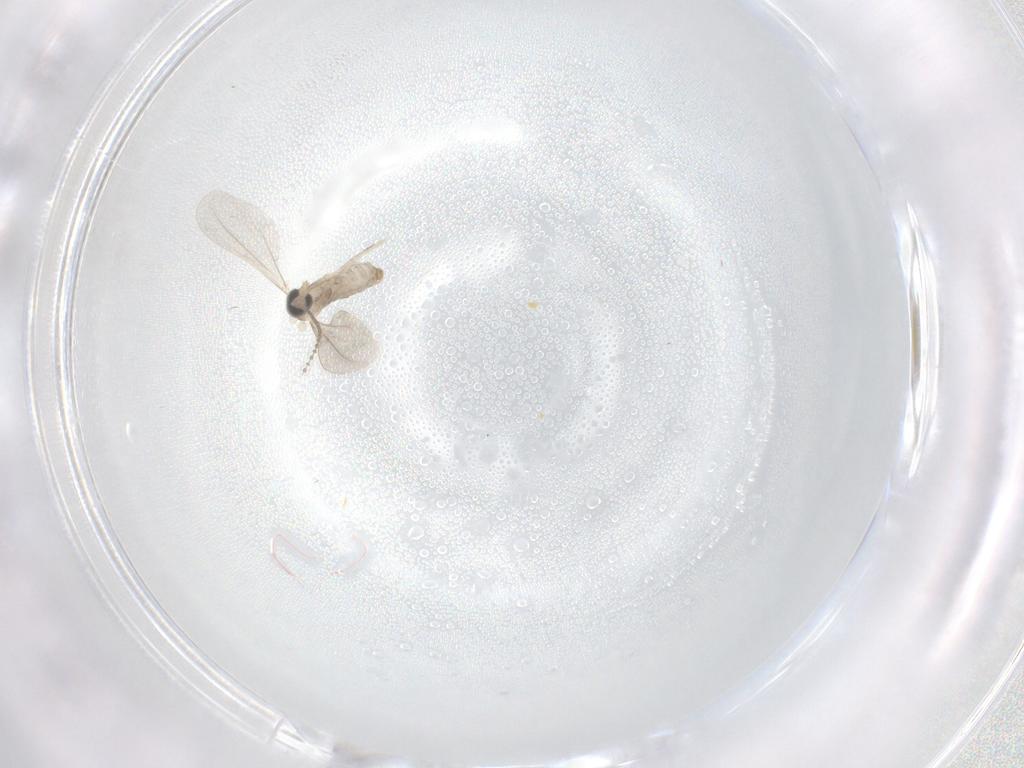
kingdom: Animalia
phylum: Arthropoda
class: Insecta
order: Diptera
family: Cecidomyiidae
